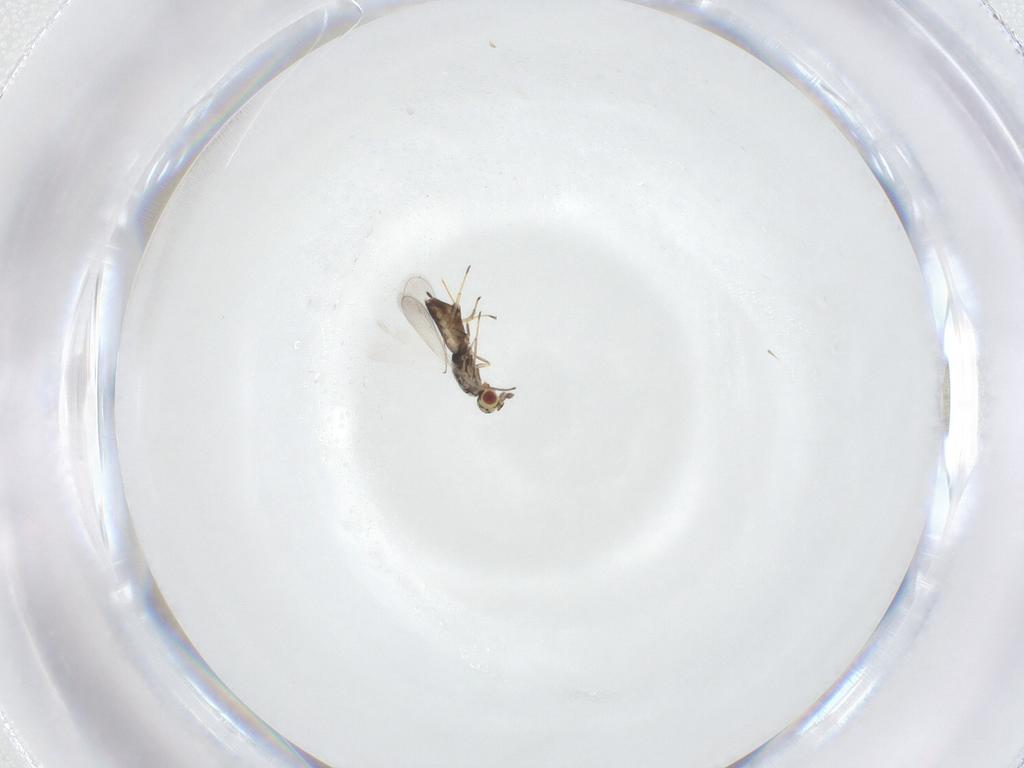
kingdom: Animalia
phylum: Arthropoda
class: Insecta
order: Hymenoptera
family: Eulophidae
